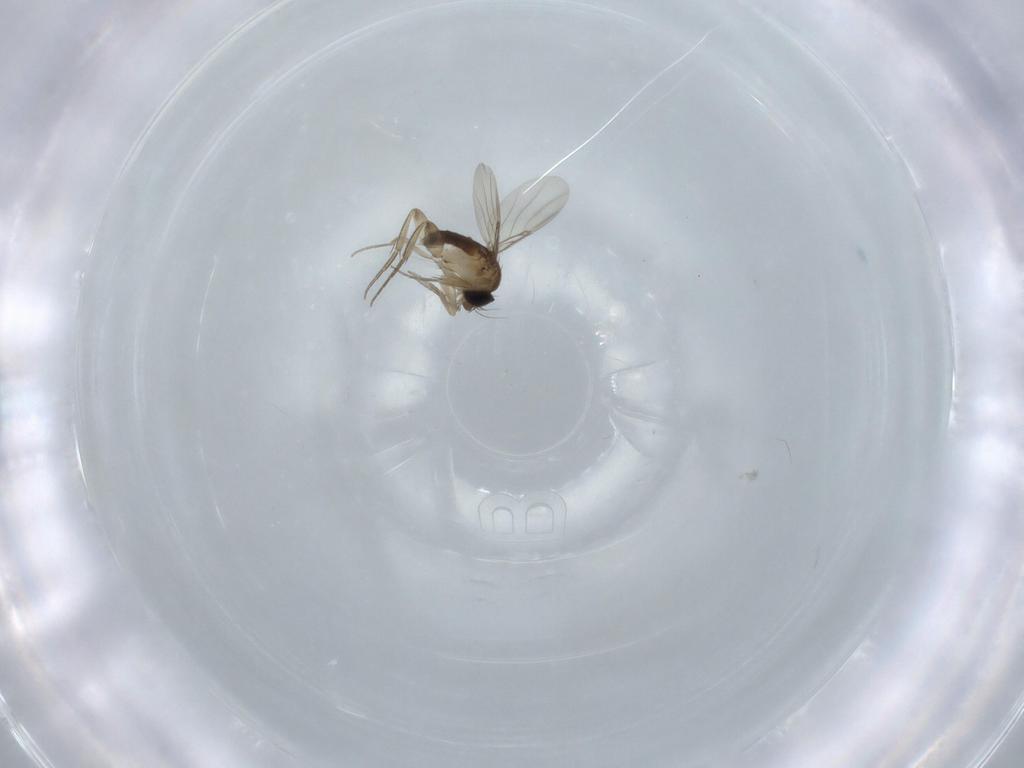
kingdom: Animalia
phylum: Arthropoda
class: Insecta
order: Diptera
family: Phoridae
